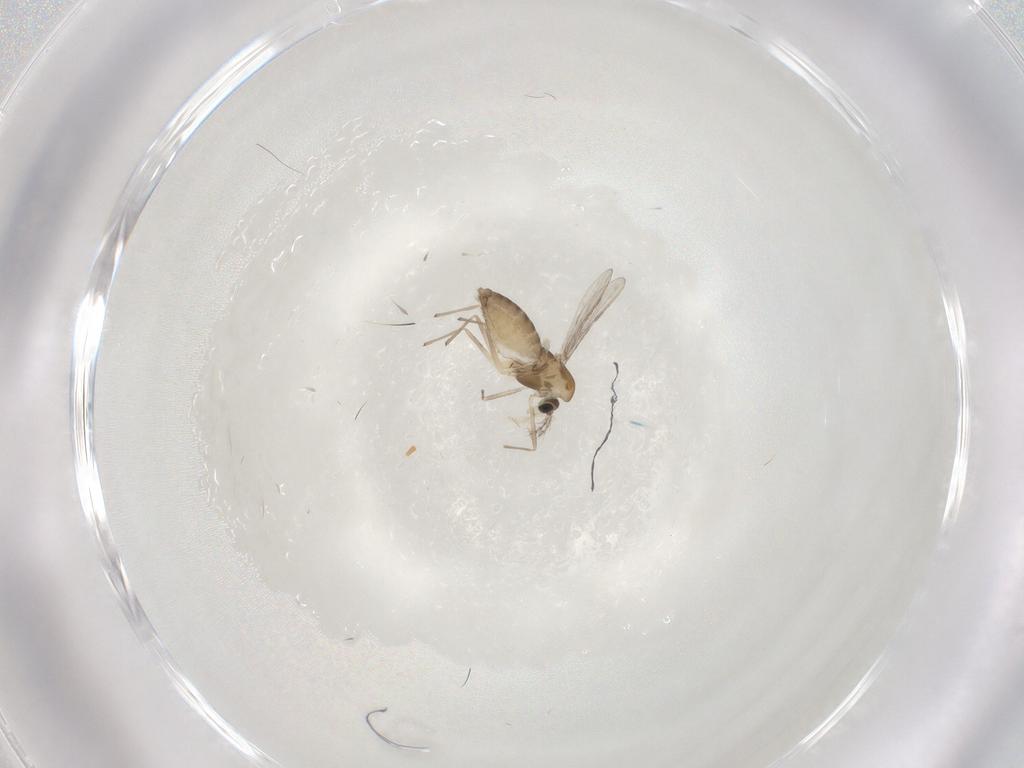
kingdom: Animalia
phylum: Arthropoda
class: Insecta
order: Diptera
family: Chironomidae
